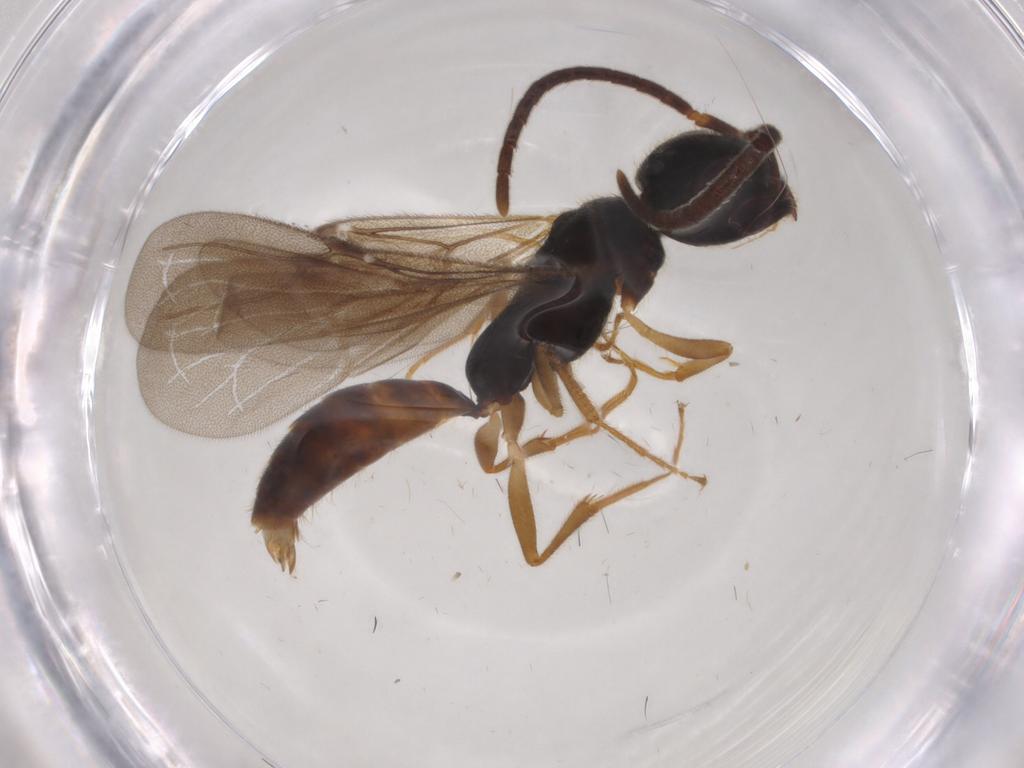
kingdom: Animalia
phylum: Arthropoda
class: Insecta
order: Hymenoptera
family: Bethylidae
